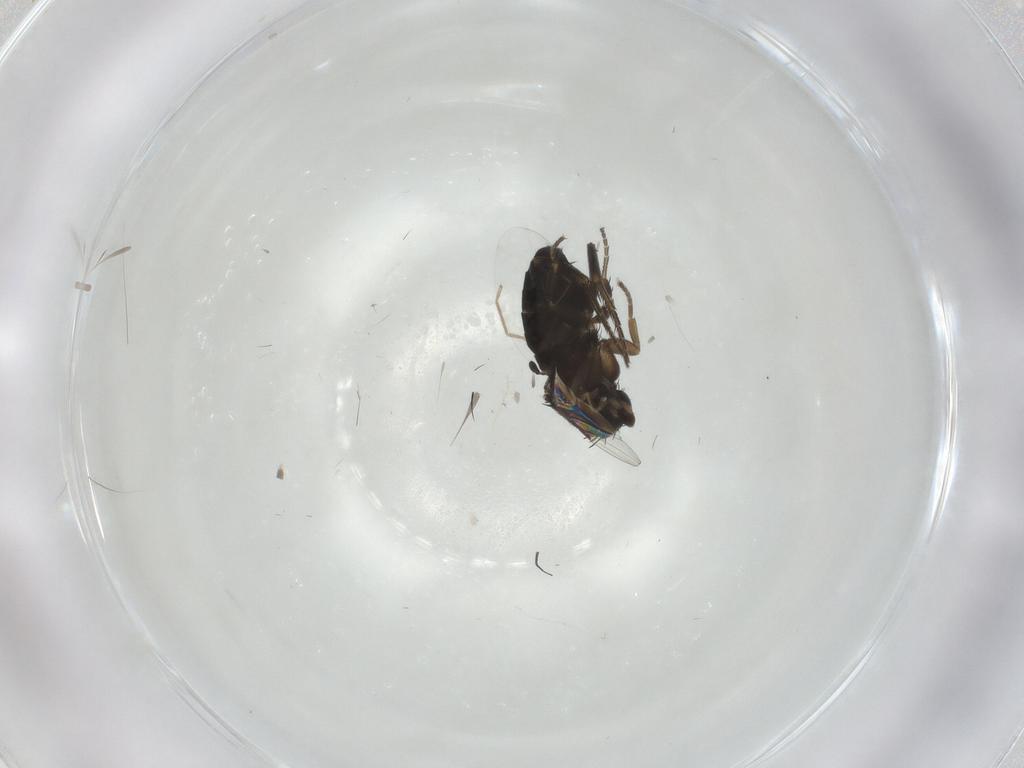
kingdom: Animalia
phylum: Arthropoda
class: Insecta
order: Diptera
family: Phoridae
